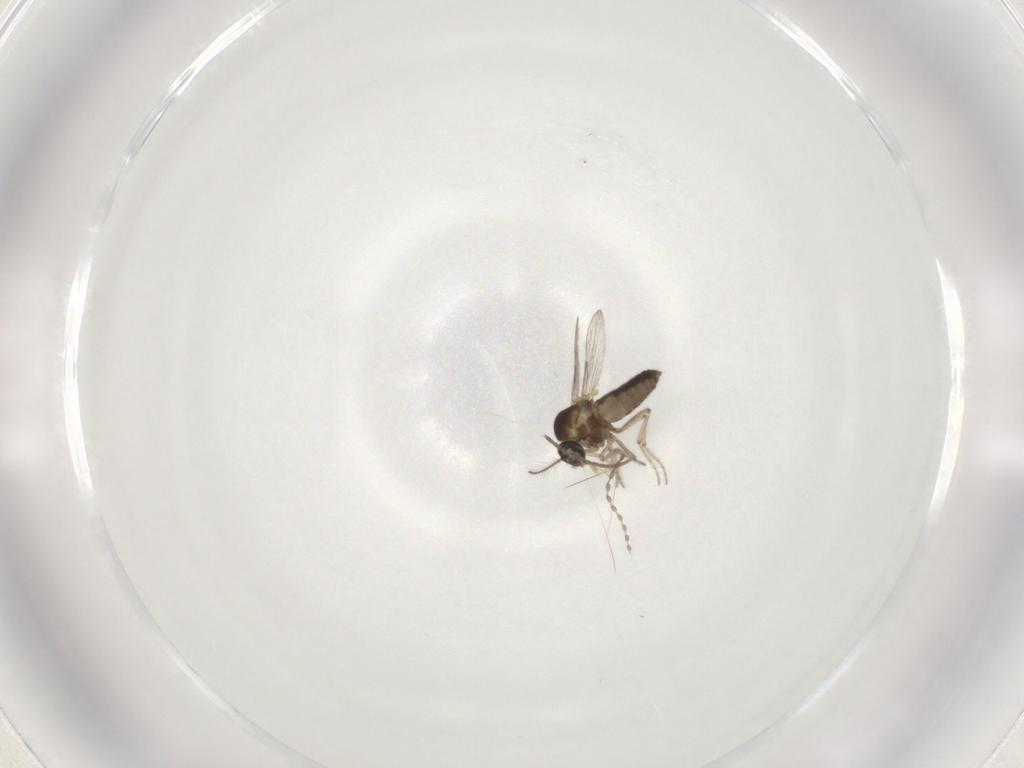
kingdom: Animalia
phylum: Arthropoda
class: Insecta
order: Diptera
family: Ceratopogonidae
